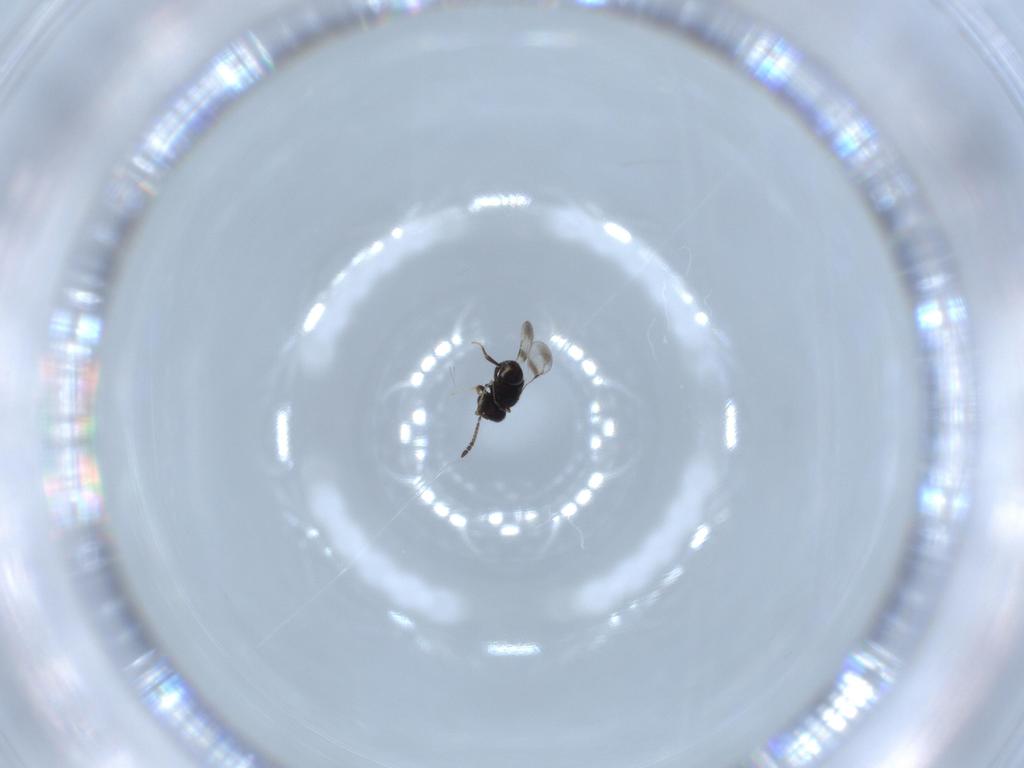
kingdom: Animalia
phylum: Arthropoda
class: Insecta
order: Hymenoptera
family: Ceraphronidae
